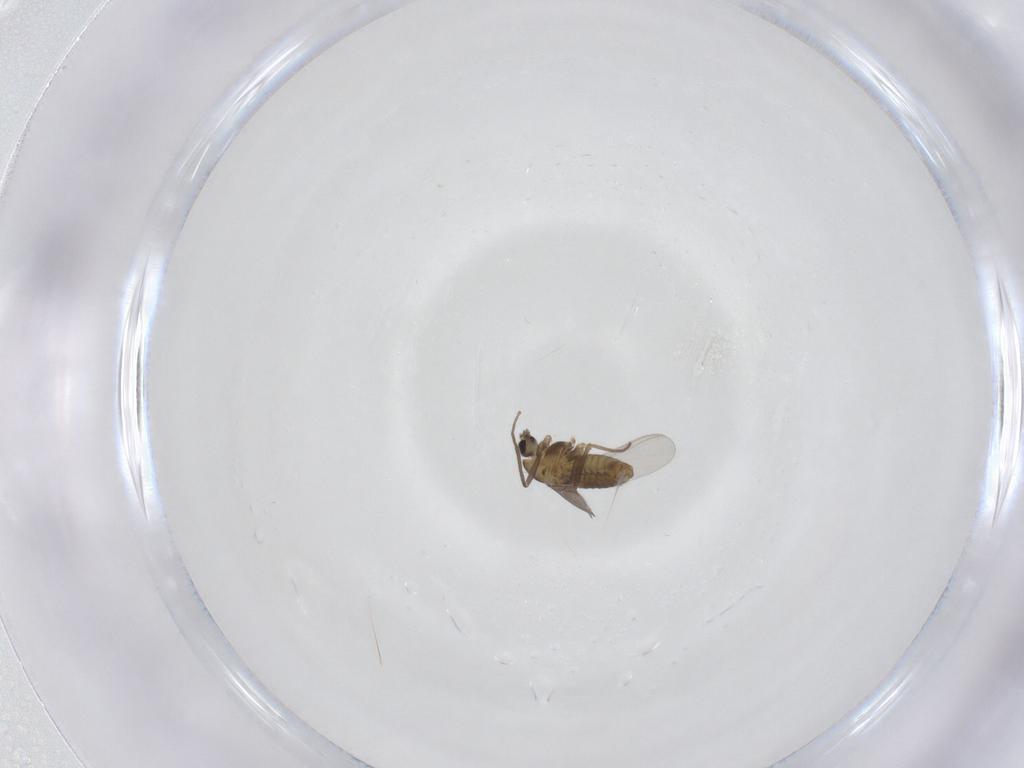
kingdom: Animalia
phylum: Arthropoda
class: Insecta
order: Diptera
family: Chironomidae
